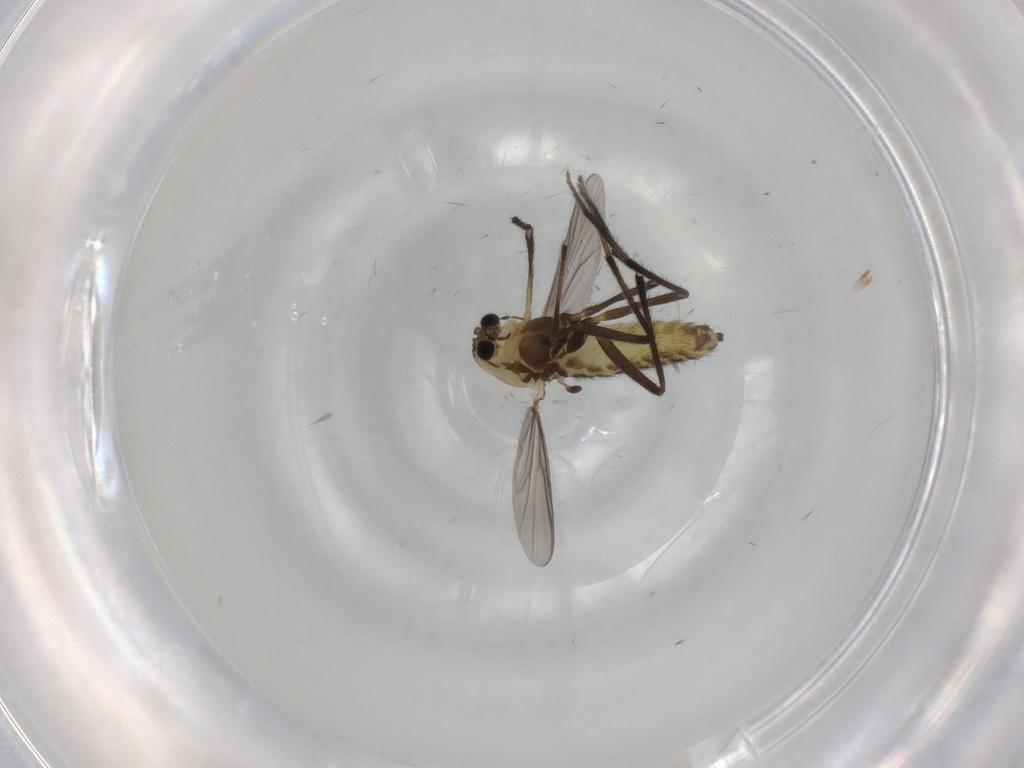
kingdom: Animalia
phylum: Arthropoda
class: Insecta
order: Diptera
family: Chironomidae
